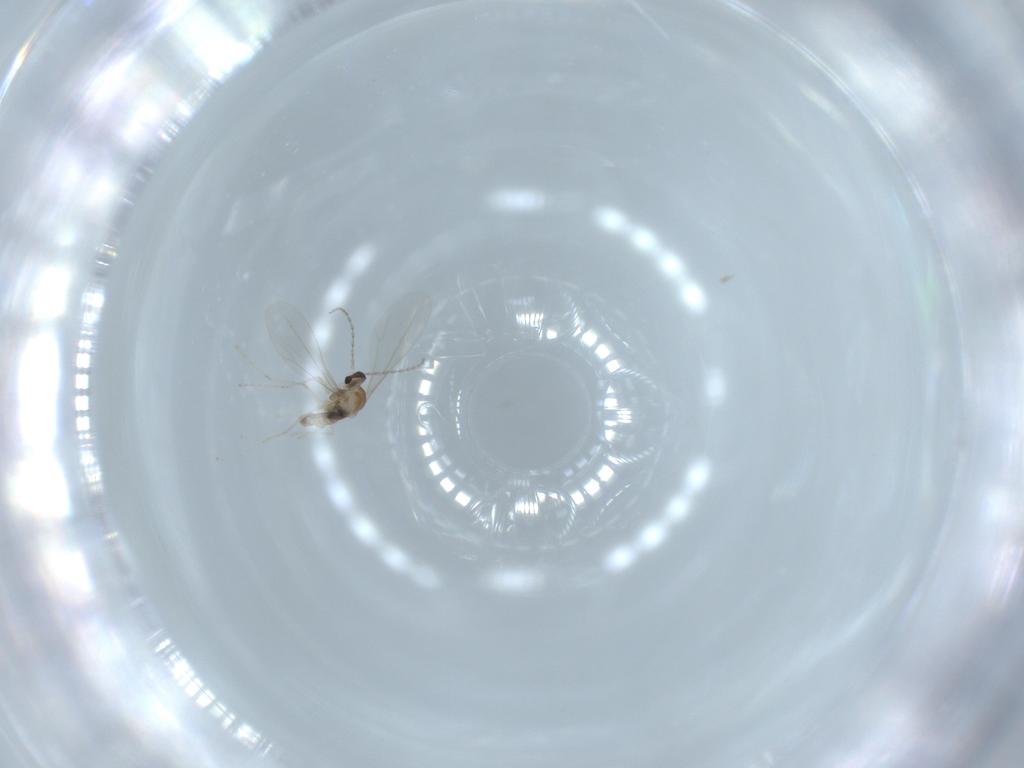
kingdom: Animalia
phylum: Arthropoda
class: Insecta
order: Diptera
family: Cecidomyiidae
